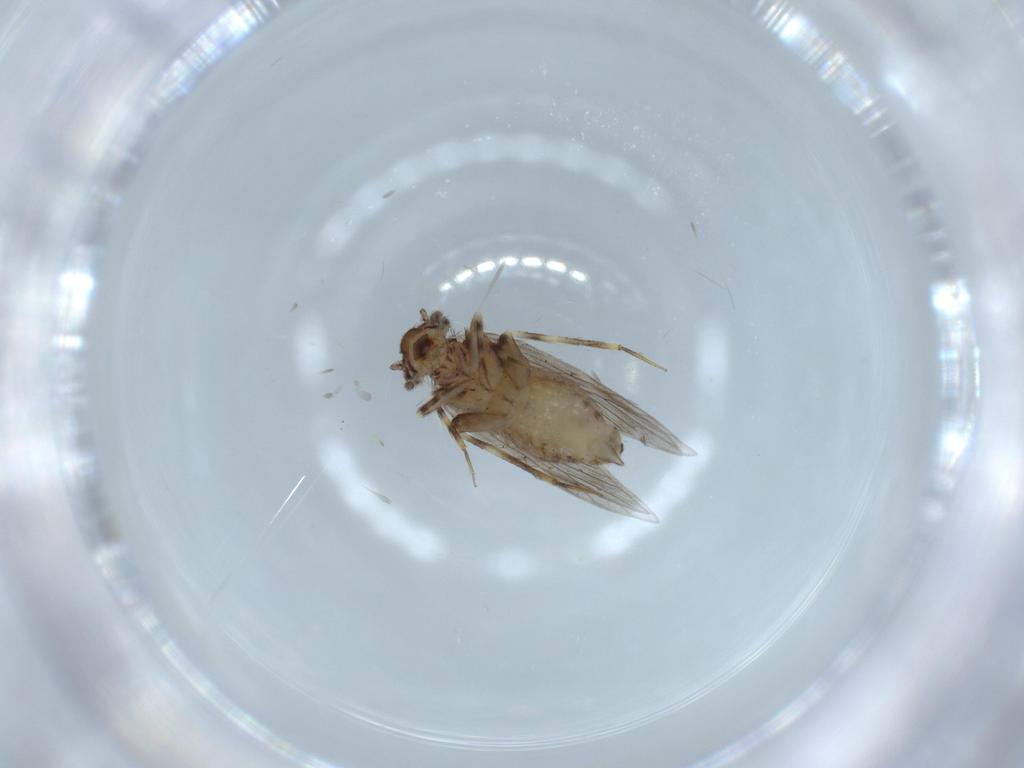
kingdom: Animalia
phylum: Arthropoda
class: Insecta
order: Psocodea
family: Lepidopsocidae
